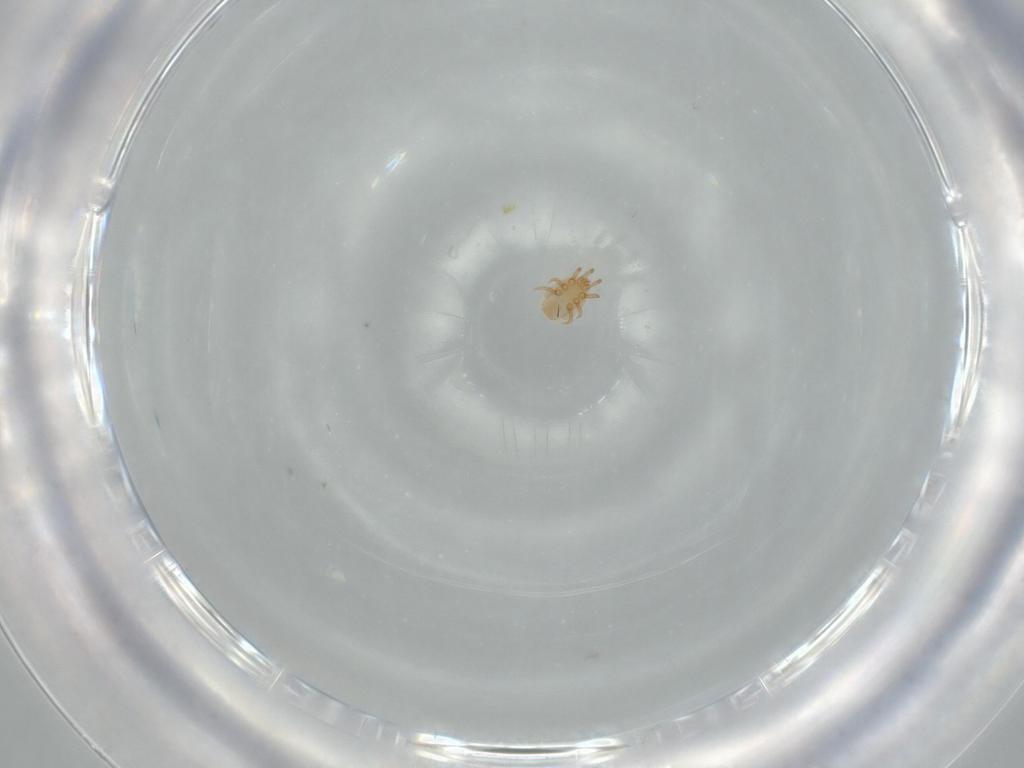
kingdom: Animalia
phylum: Arthropoda
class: Arachnida
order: Mesostigmata
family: Dinychidae
